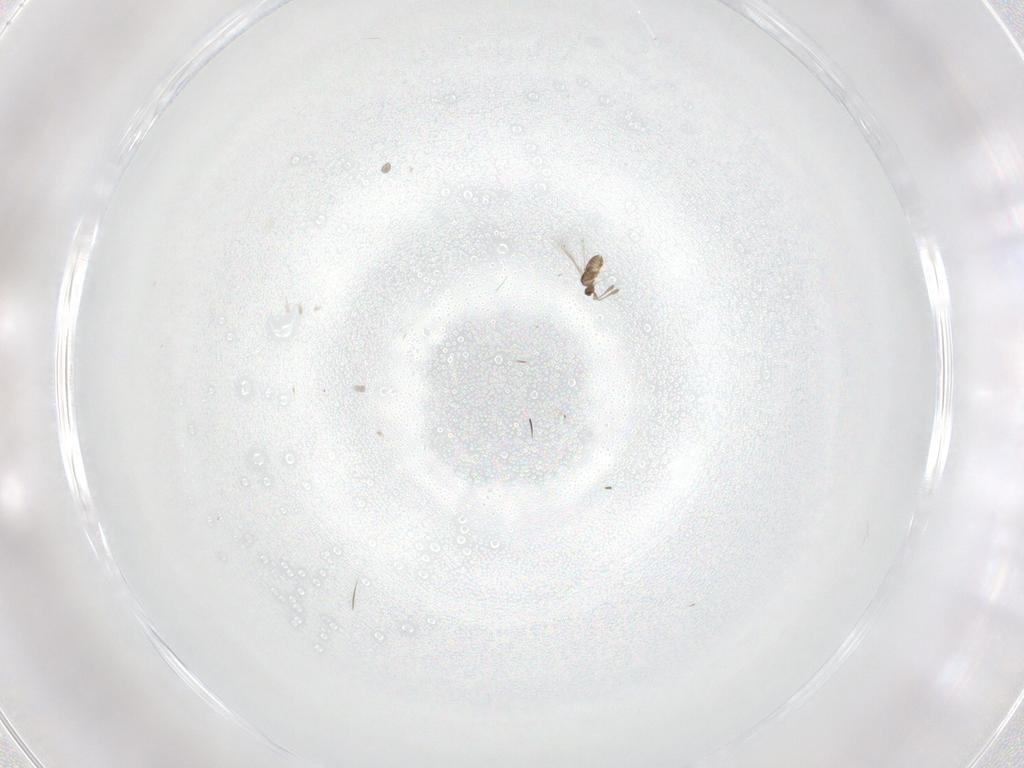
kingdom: Animalia
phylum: Arthropoda
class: Insecta
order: Hymenoptera
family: Mymaridae
